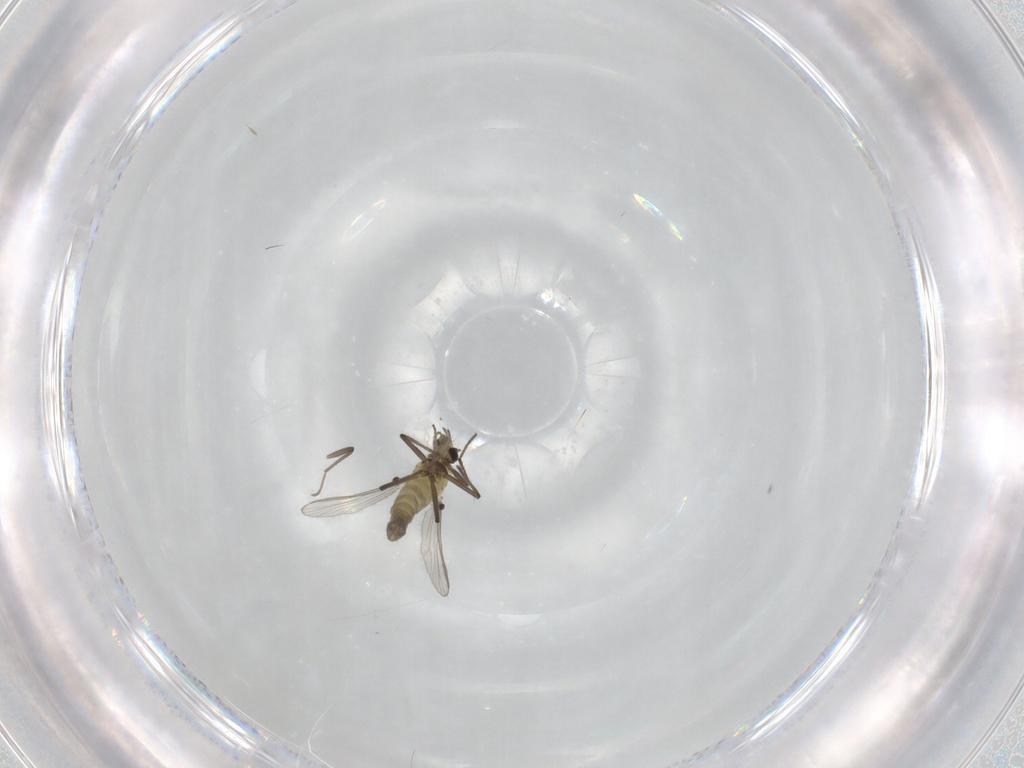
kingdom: Animalia
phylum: Arthropoda
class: Insecta
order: Diptera
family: Chironomidae
